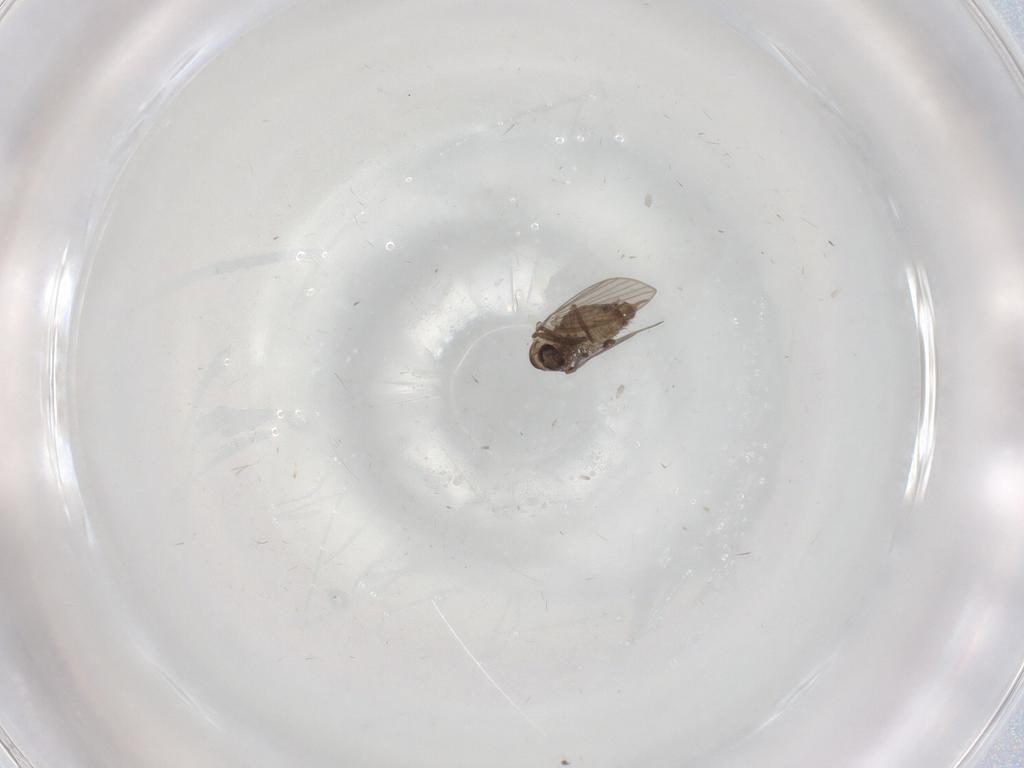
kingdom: Animalia
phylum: Arthropoda
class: Insecta
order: Diptera
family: Psychodidae
